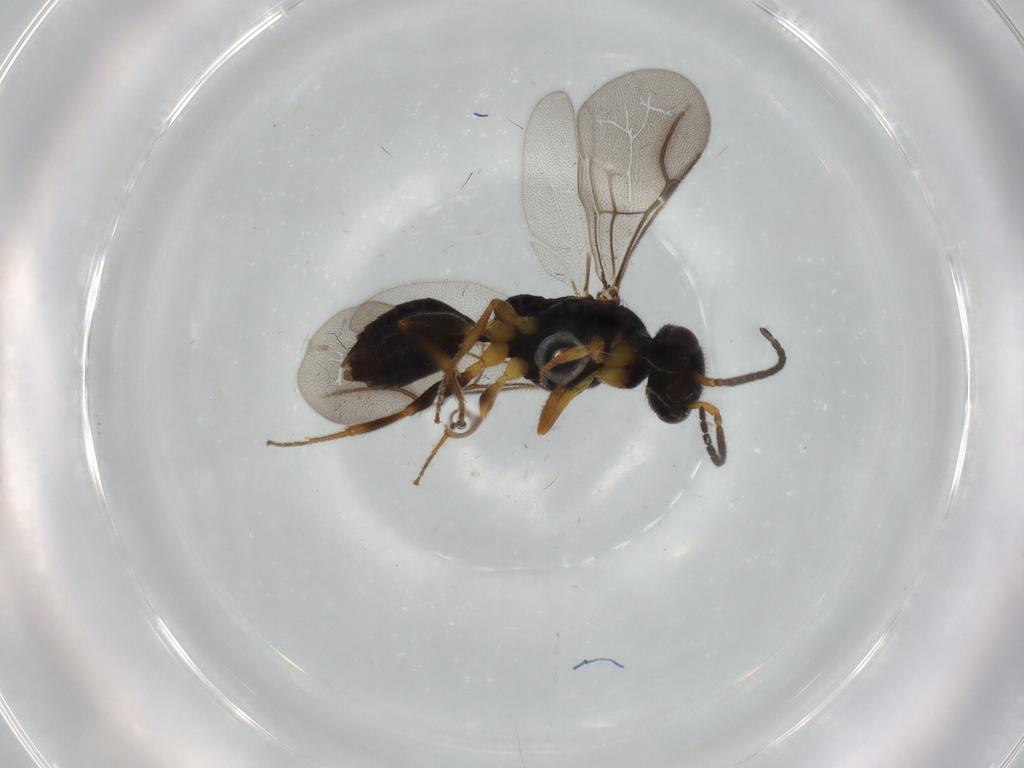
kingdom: Animalia
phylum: Arthropoda
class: Insecta
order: Hymenoptera
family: Bethylidae
